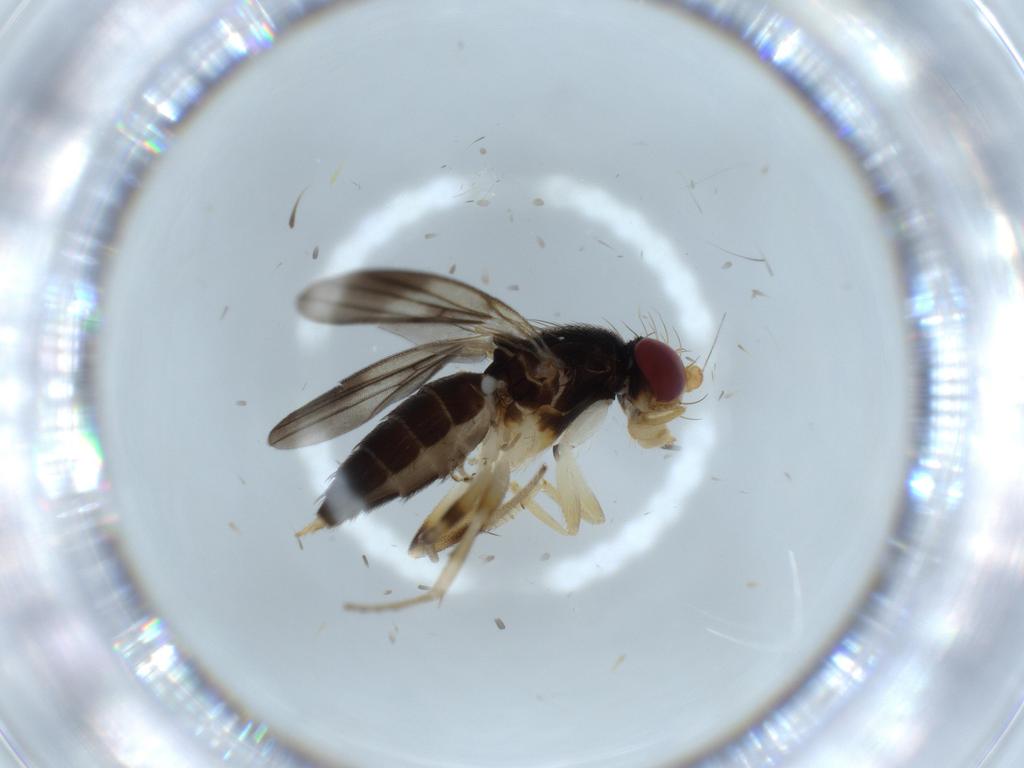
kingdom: Animalia
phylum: Arthropoda
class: Insecta
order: Diptera
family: Clusiidae
